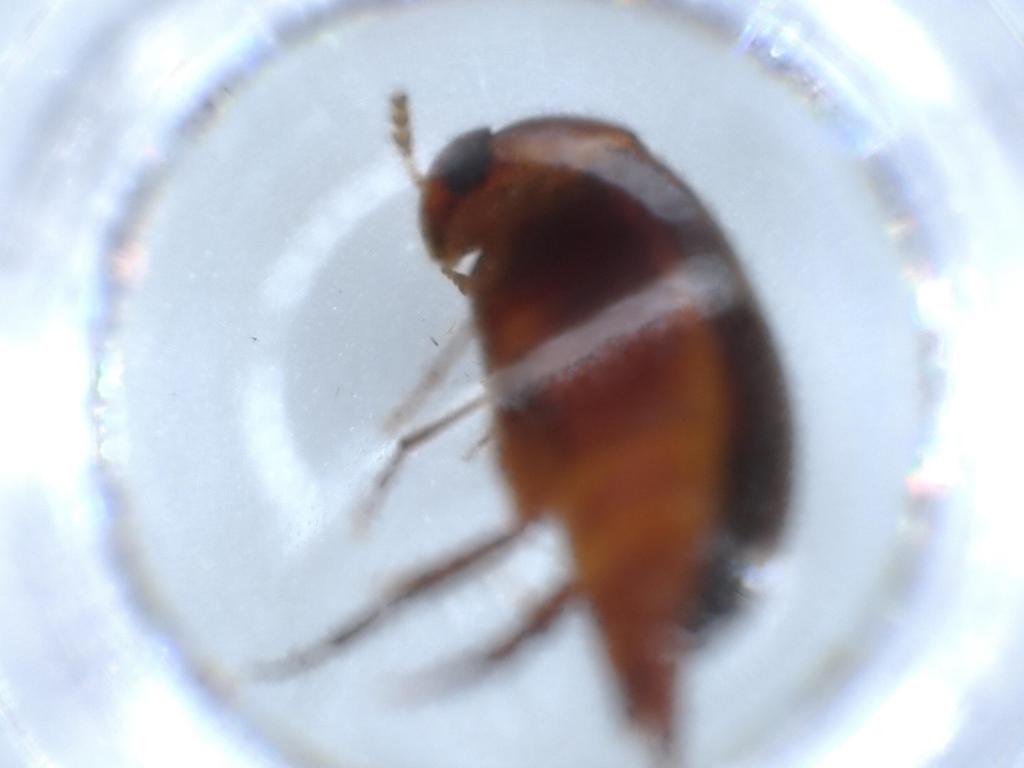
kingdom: Animalia
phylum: Arthropoda
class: Insecta
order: Coleoptera
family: Mordellidae
